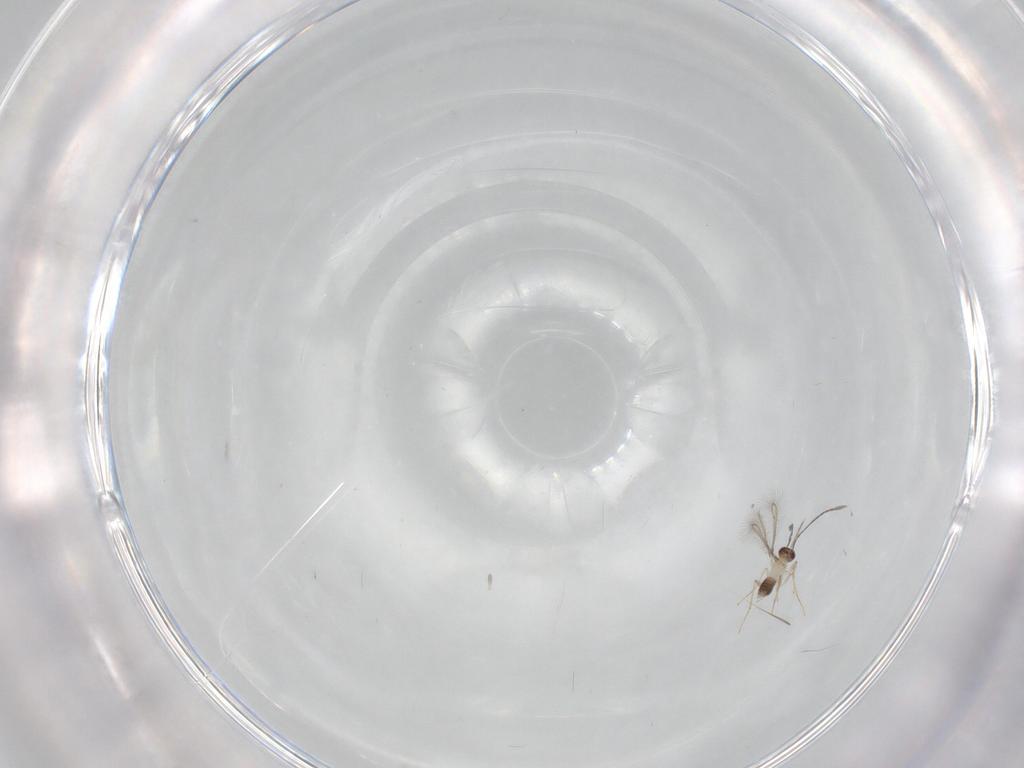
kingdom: Animalia
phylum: Arthropoda
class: Insecta
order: Hymenoptera
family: Mymaridae
